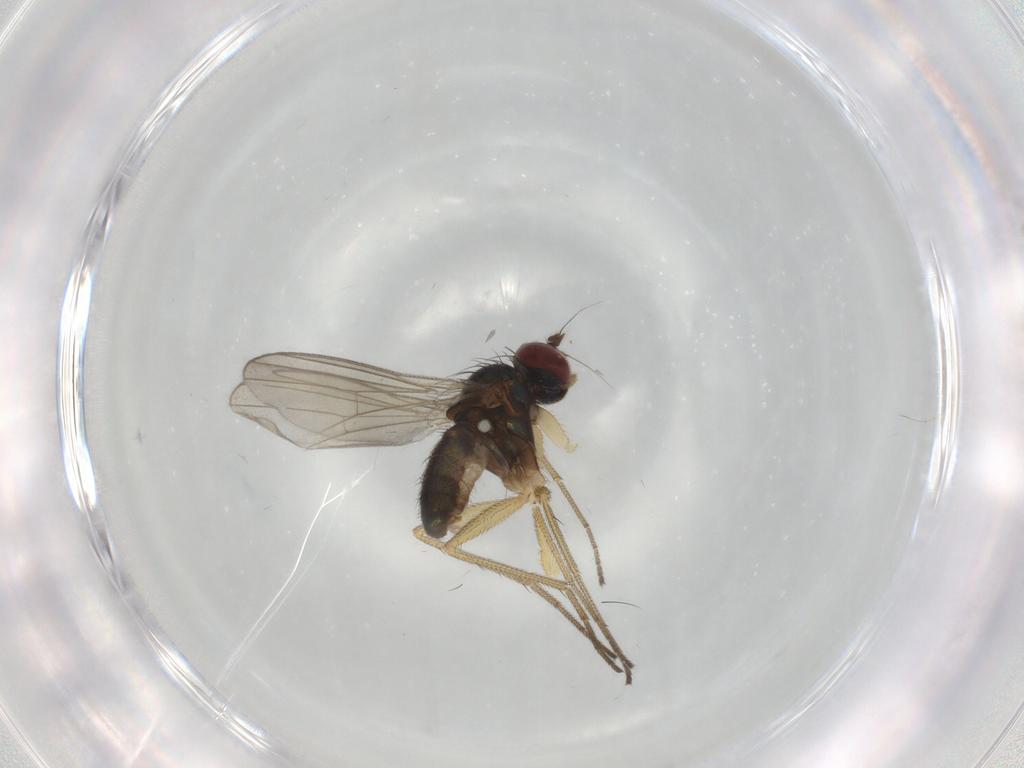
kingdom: Animalia
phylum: Arthropoda
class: Insecta
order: Diptera
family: Dolichopodidae
